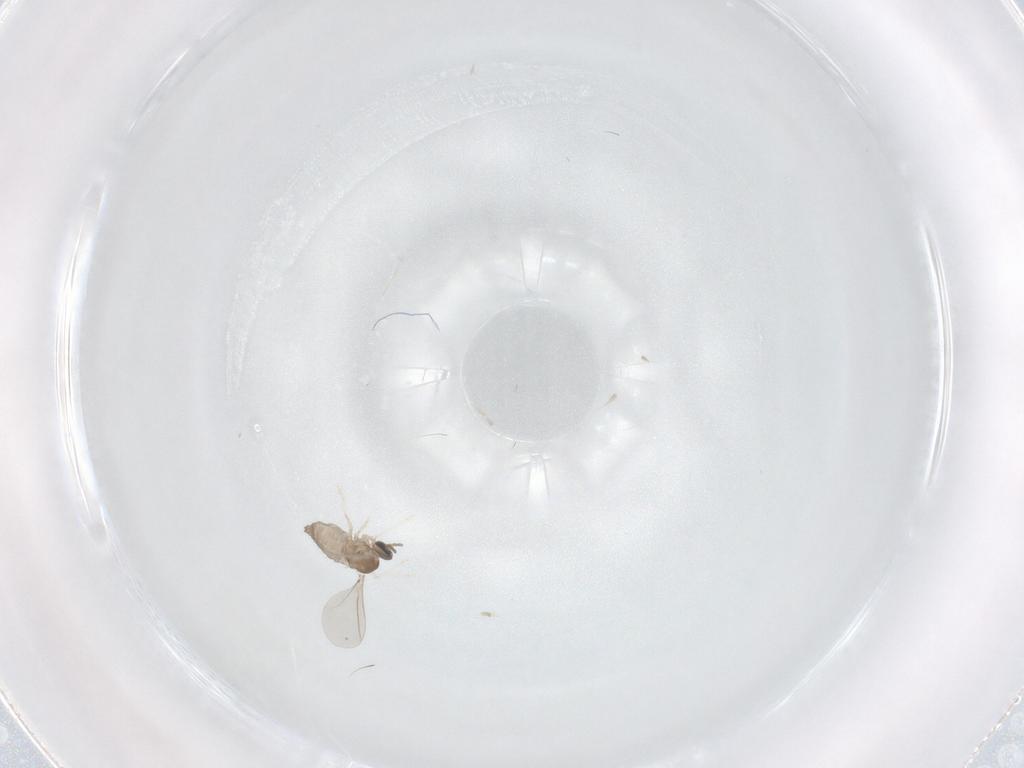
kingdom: Animalia
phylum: Arthropoda
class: Insecta
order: Diptera
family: Cecidomyiidae
